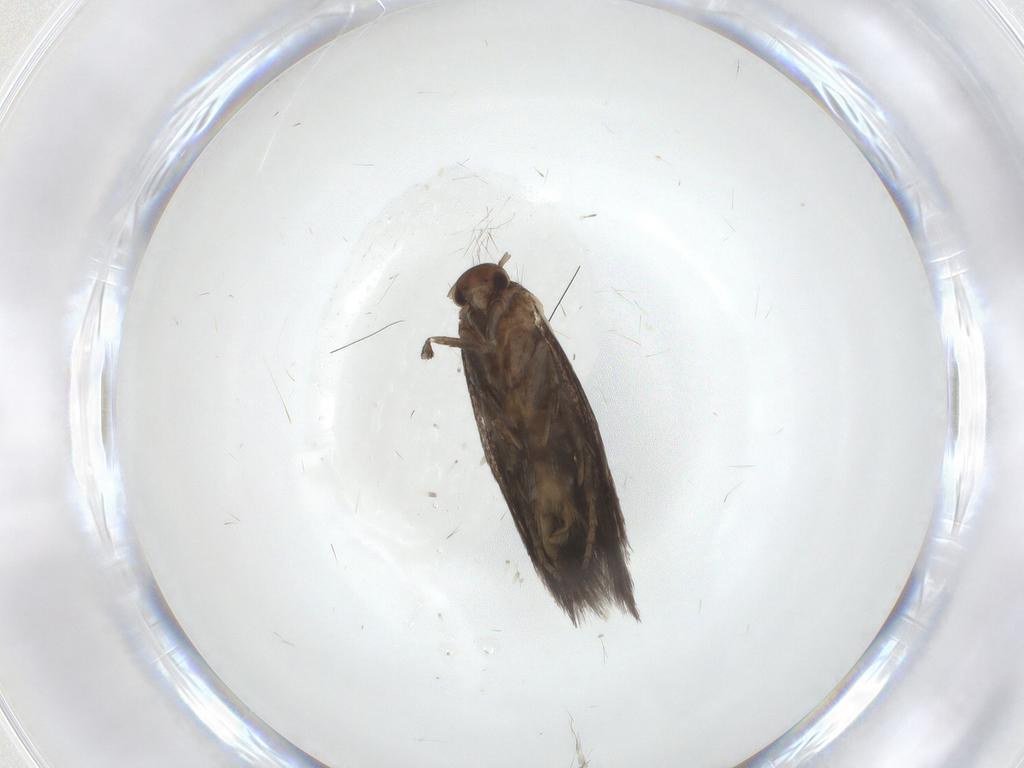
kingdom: Animalia
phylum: Arthropoda
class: Insecta
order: Lepidoptera
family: Elachistidae
